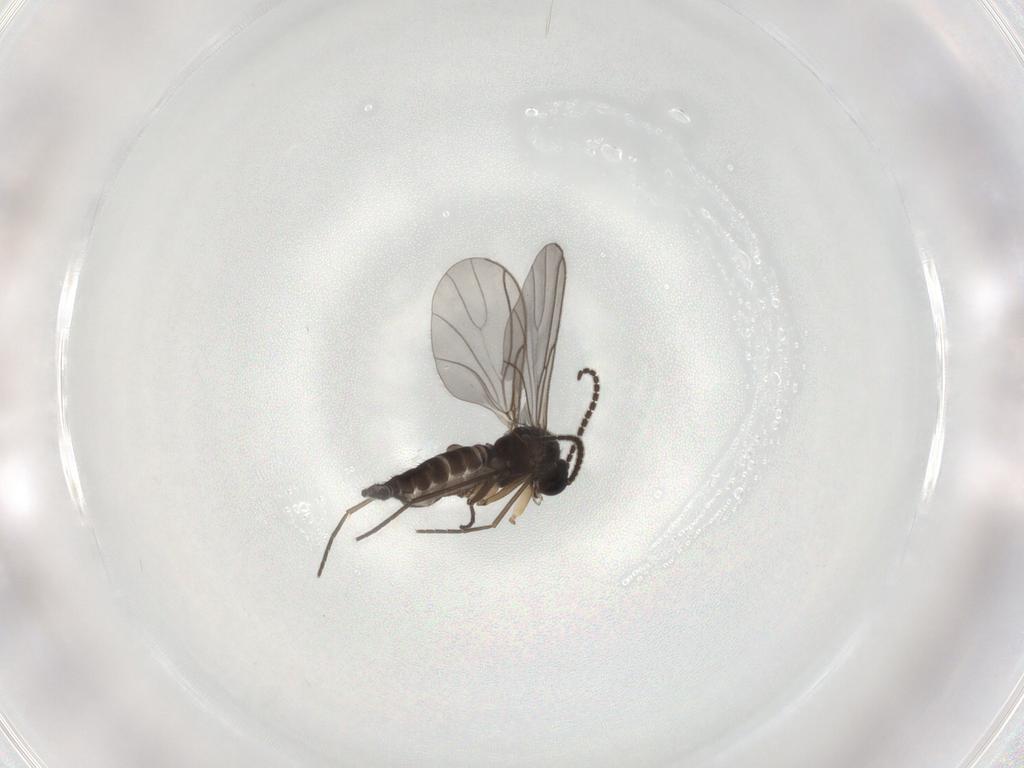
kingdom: Animalia
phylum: Arthropoda
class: Insecta
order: Diptera
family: Sciaridae
